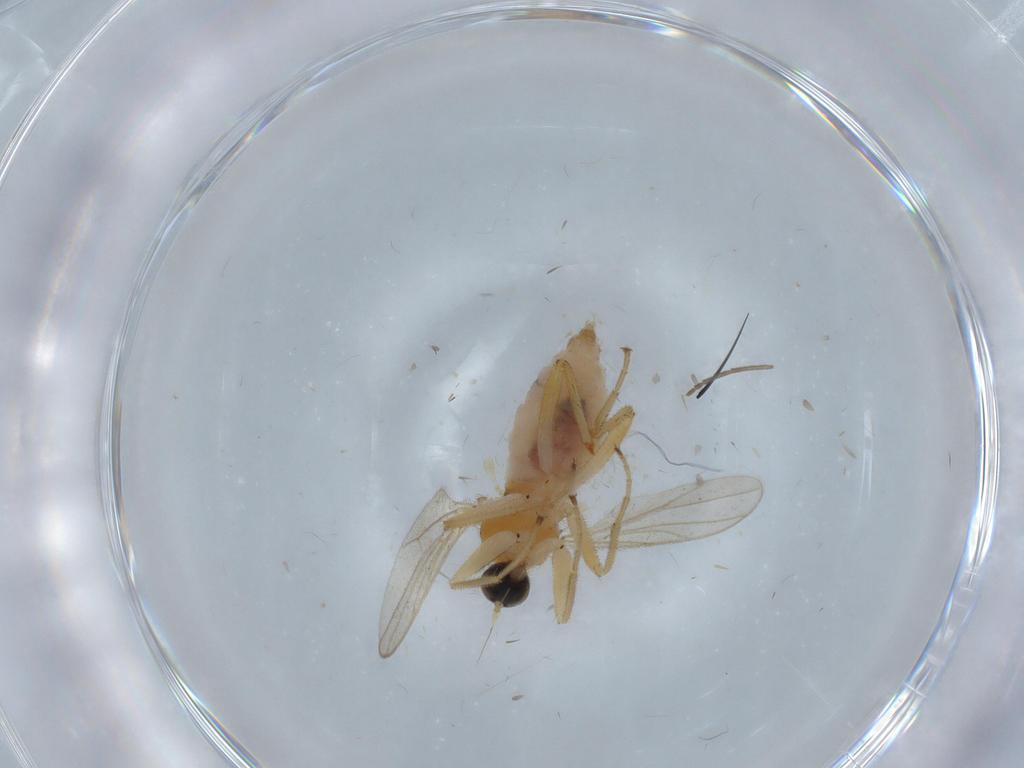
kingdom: Animalia
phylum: Arthropoda
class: Insecta
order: Diptera
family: Hybotidae
